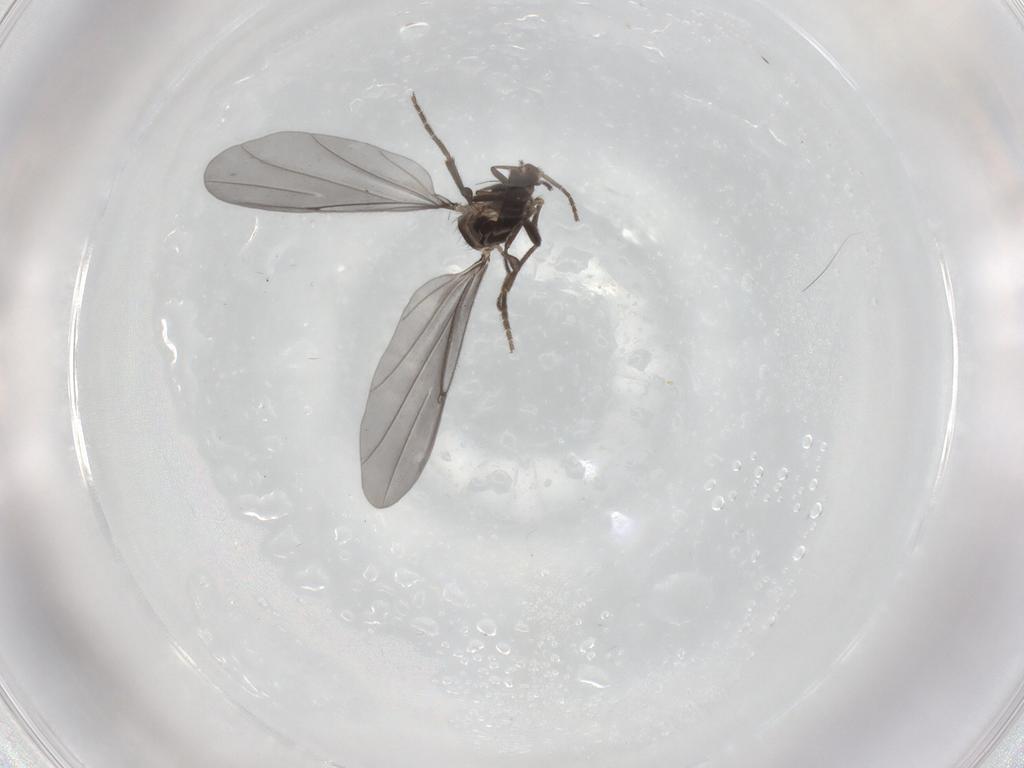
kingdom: Animalia
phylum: Arthropoda
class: Insecta
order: Diptera
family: Phoridae
